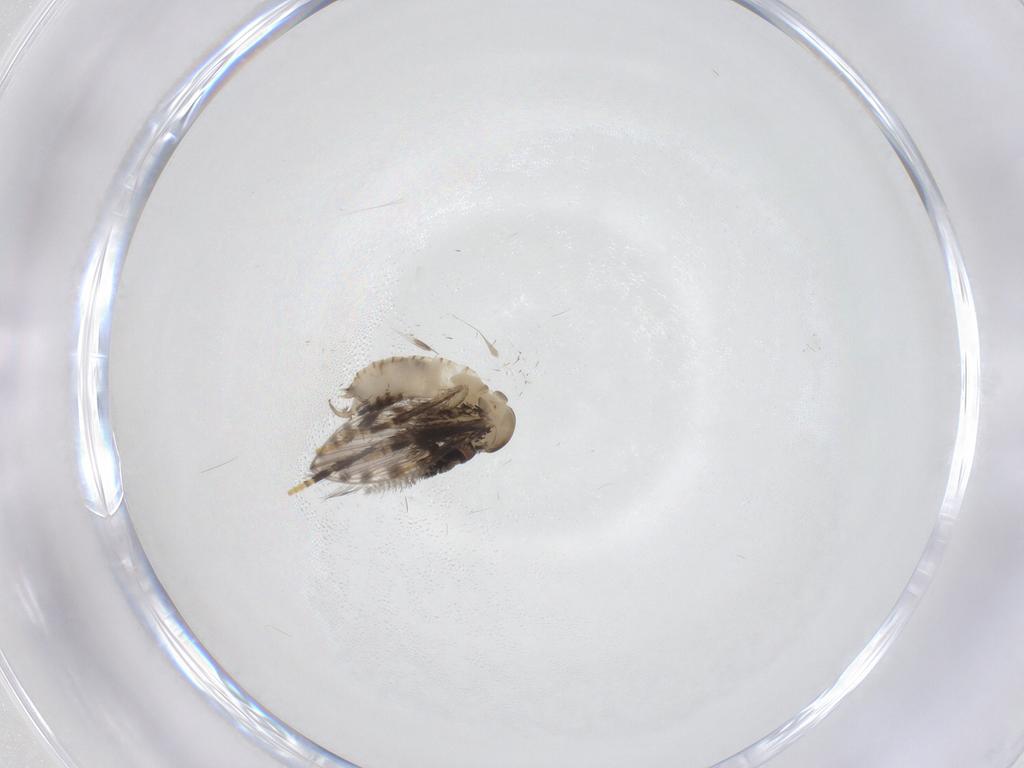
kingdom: Animalia
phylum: Arthropoda
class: Insecta
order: Diptera
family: Psychodidae
